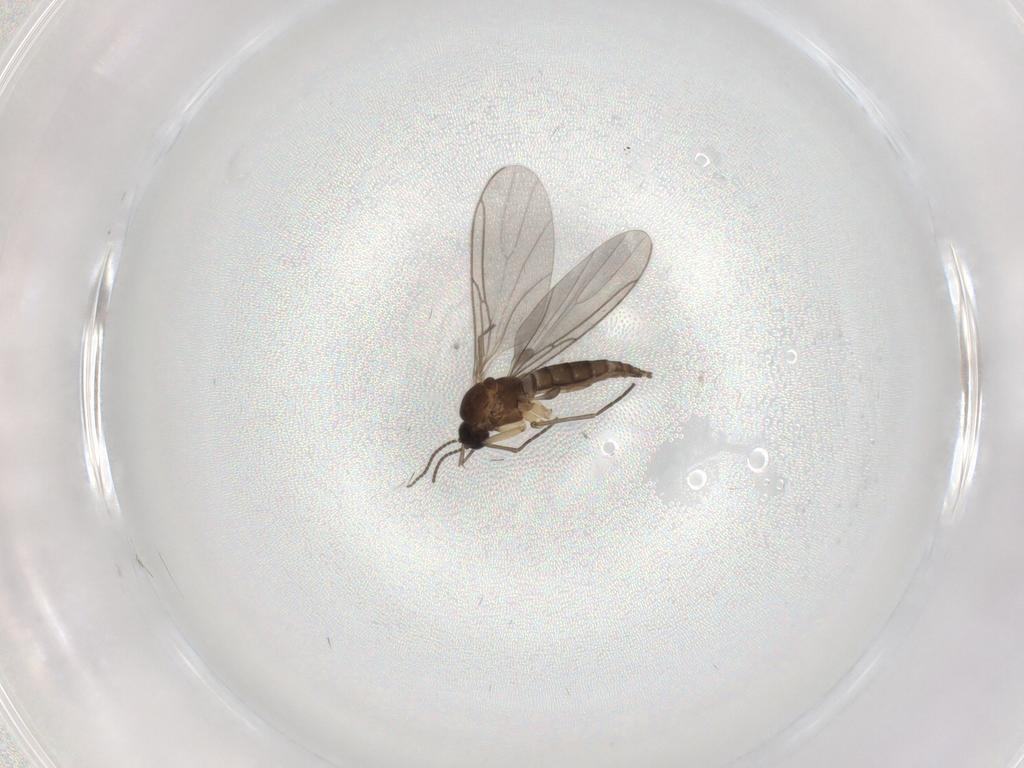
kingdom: Animalia
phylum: Arthropoda
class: Insecta
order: Diptera
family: Sciaridae
